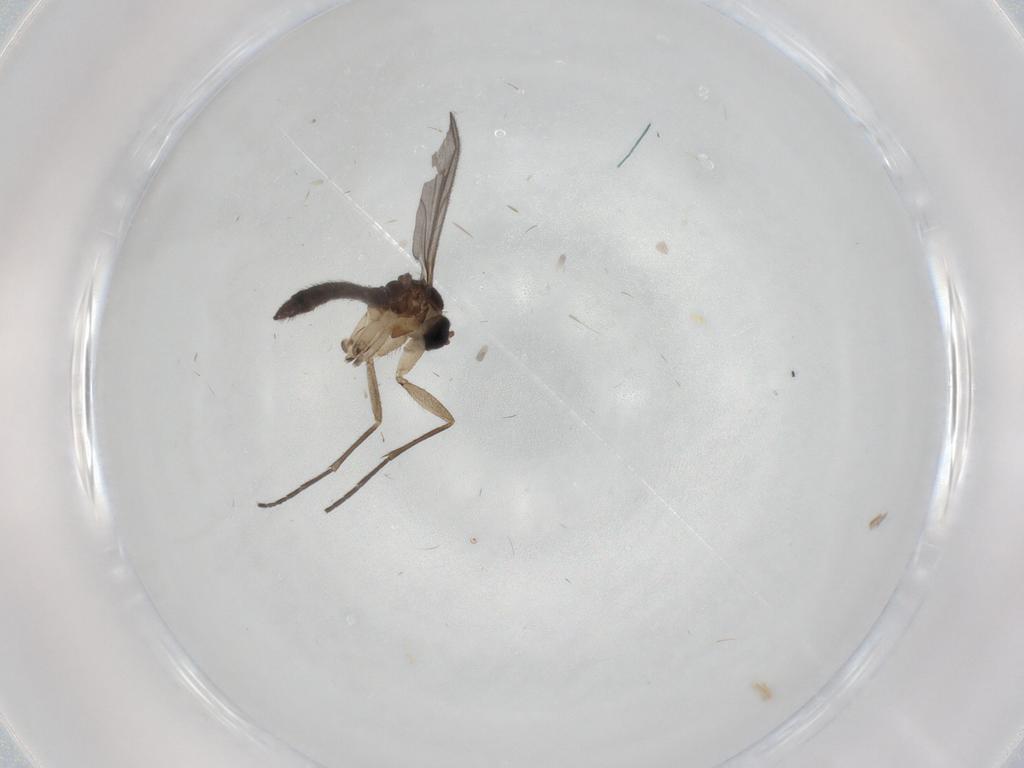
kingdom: Animalia
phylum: Arthropoda
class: Insecta
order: Diptera
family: Sciaridae
